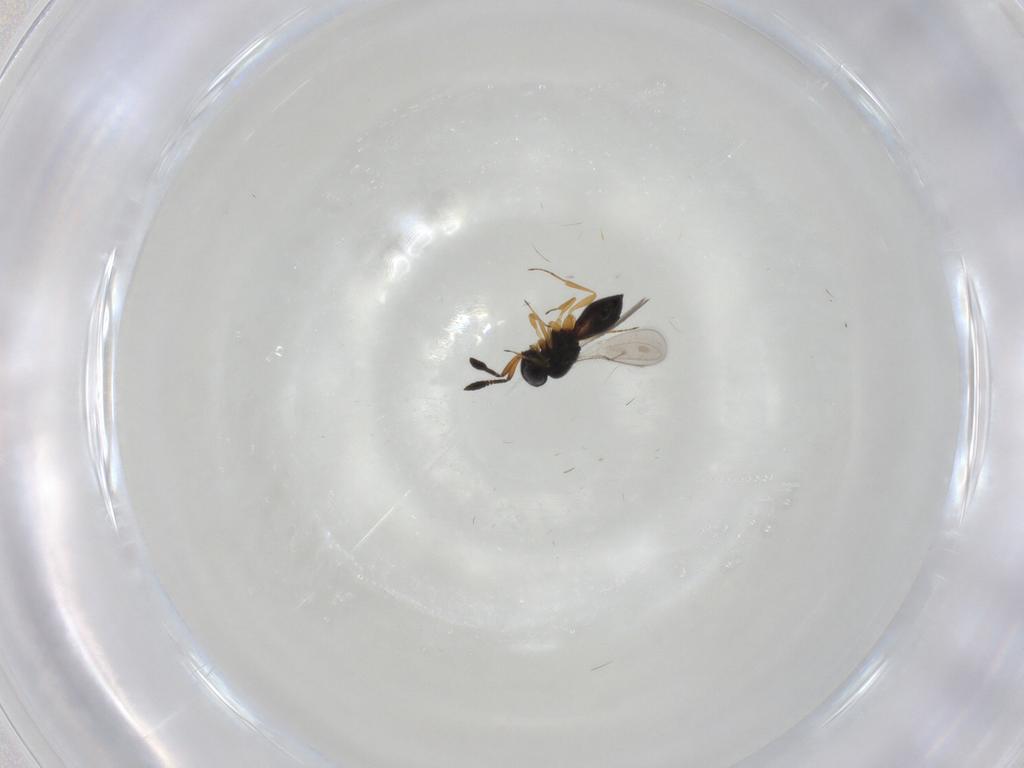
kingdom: Animalia
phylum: Arthropoda
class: Insecta
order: Hymenoptera
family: Scelionidae
